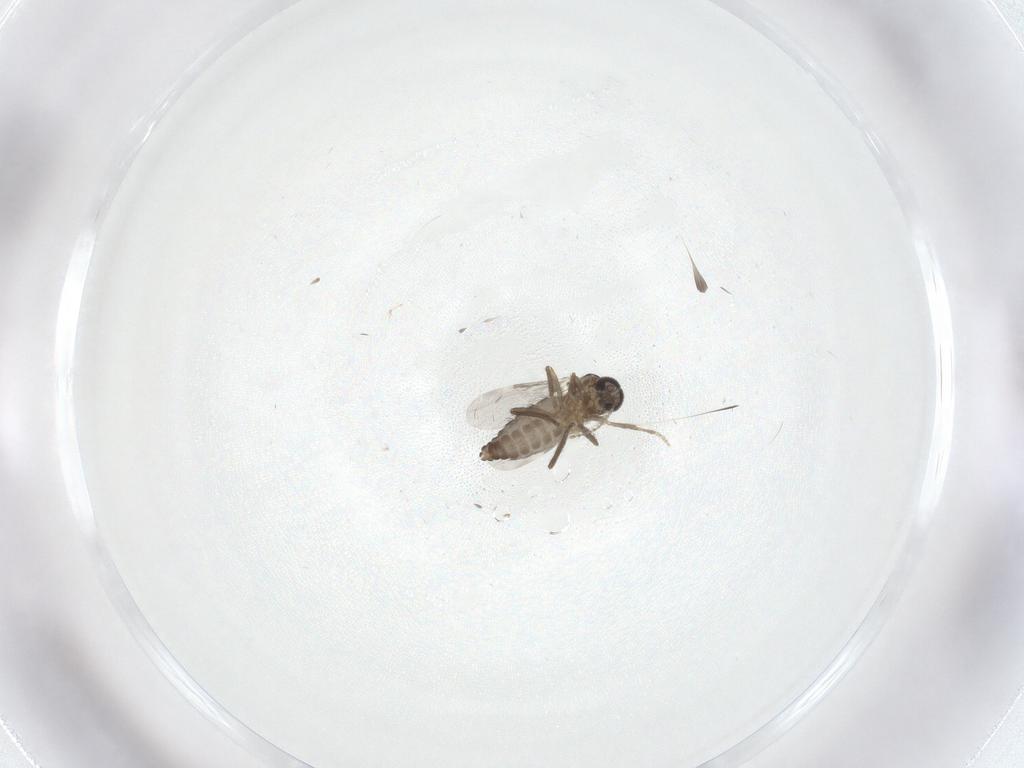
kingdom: Animalia
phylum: Arthropoda
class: Insecta
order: Diptera
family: Ceratopogonidae
